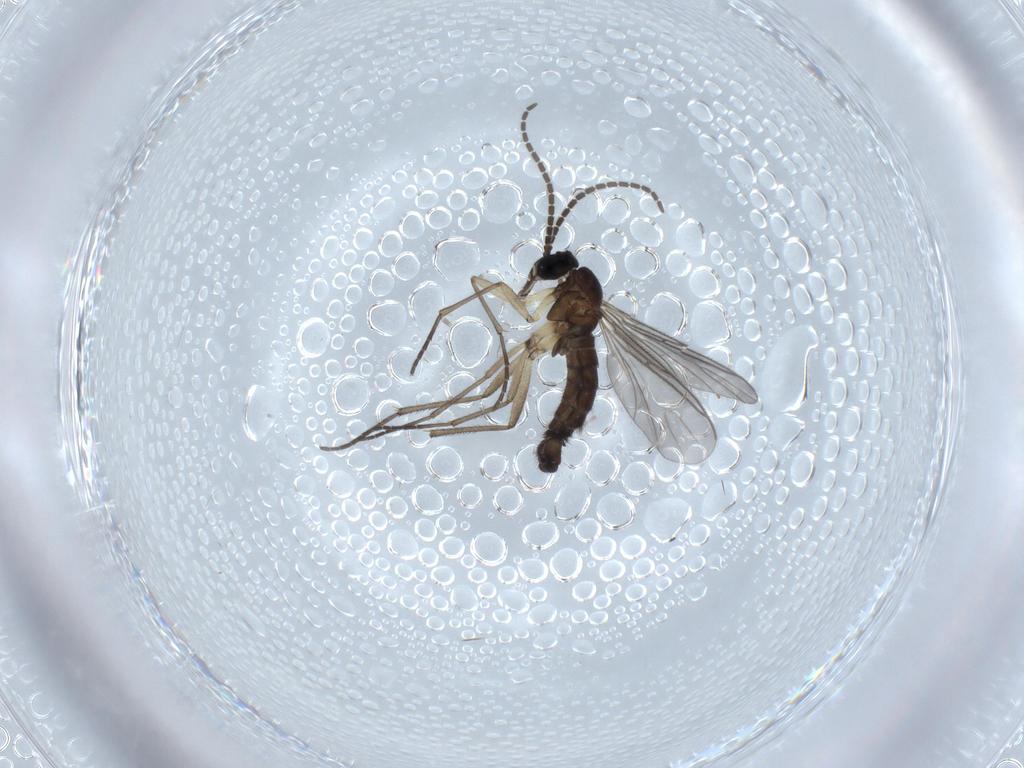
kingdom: Animalia
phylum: Arthropoda
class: Insecta
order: Diptera
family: Sciaridae
